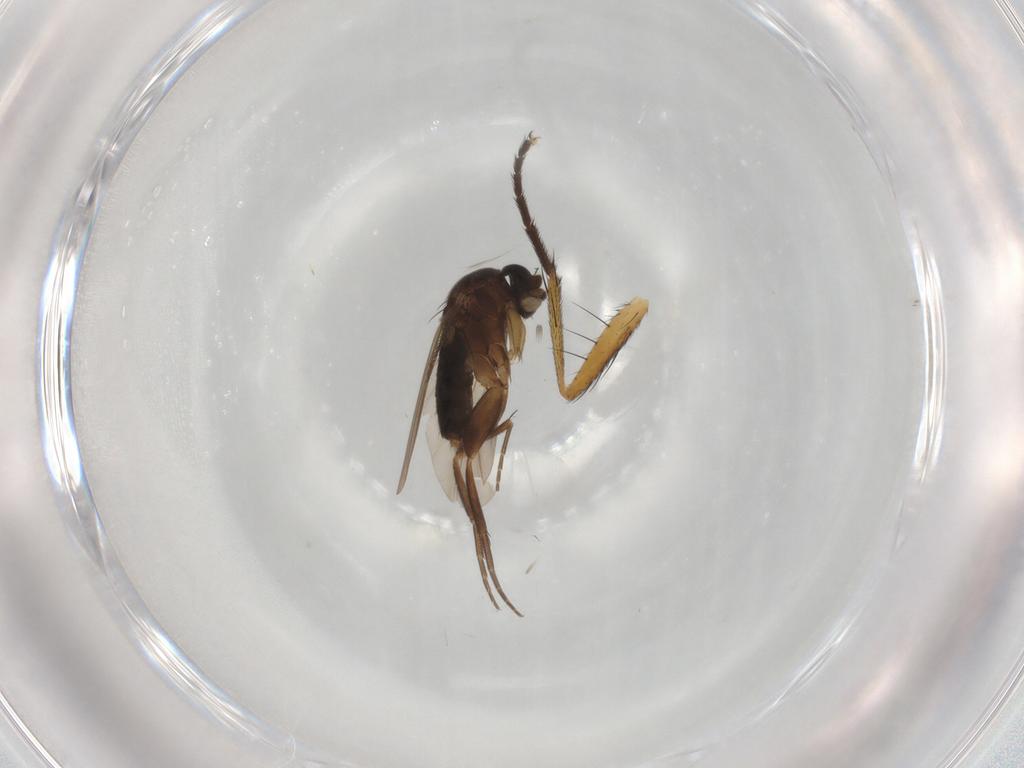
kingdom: Animalia
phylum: Arthropoda
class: Insecta
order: Diptera
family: Phoridae
